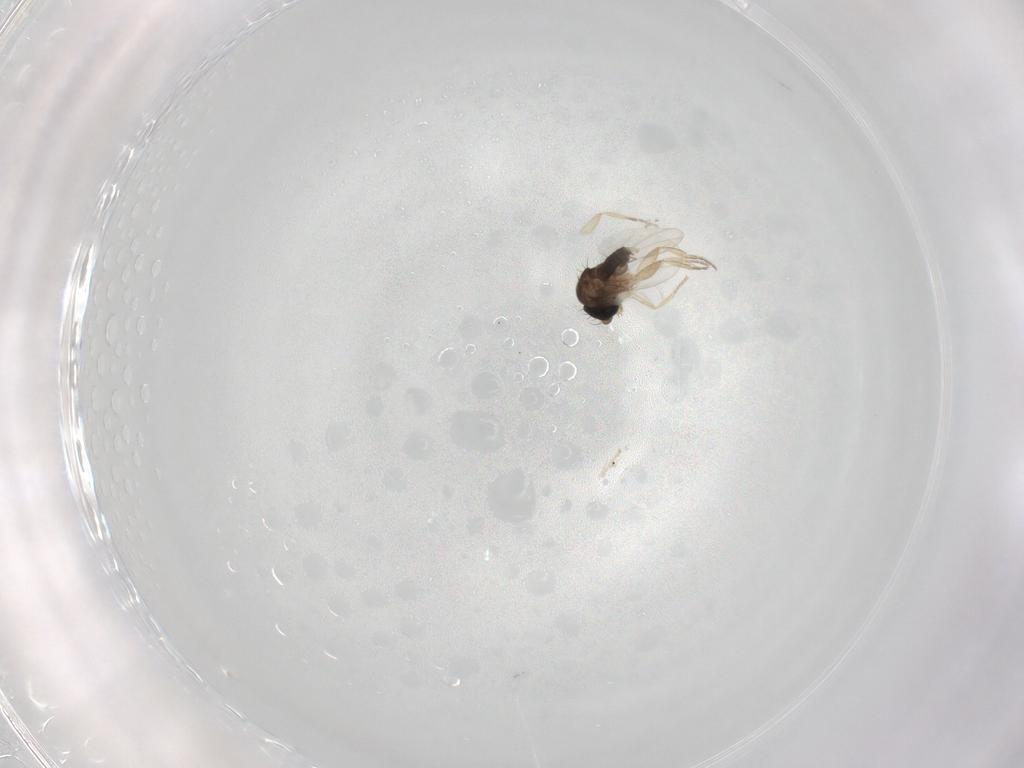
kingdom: Animalia
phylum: Arthropoda
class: Insecta
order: Diptera
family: Phoridae
